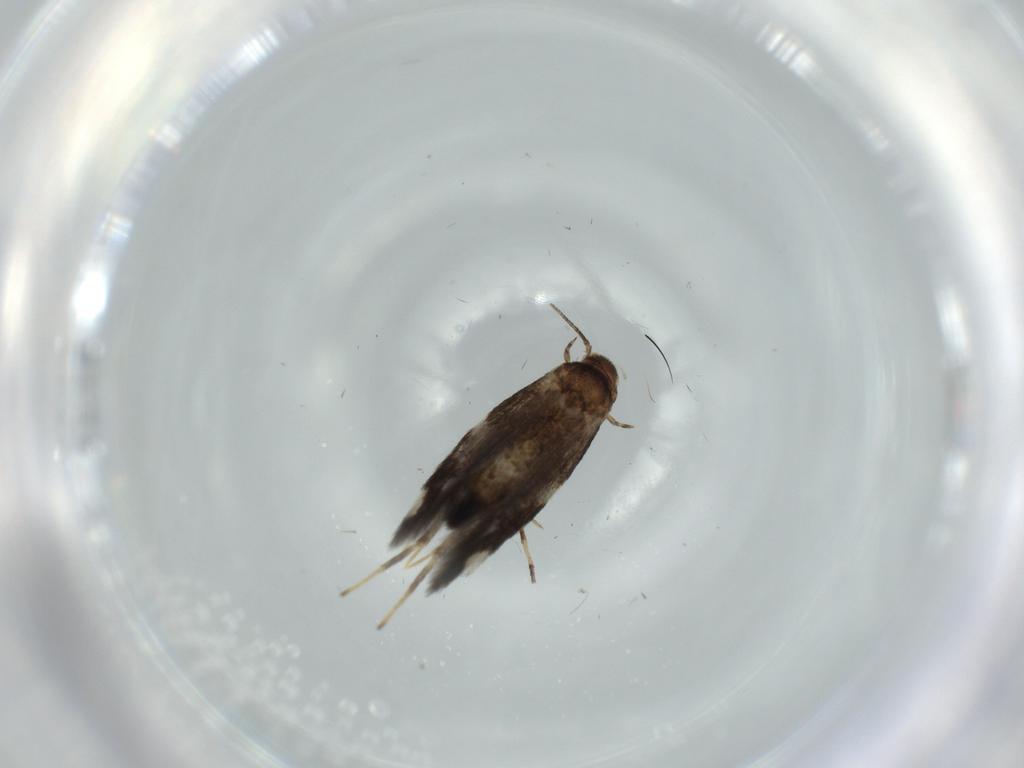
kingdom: Animalia
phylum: Arthropoda
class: Insecta
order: Lepidoptera
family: Cosmopterigidae
